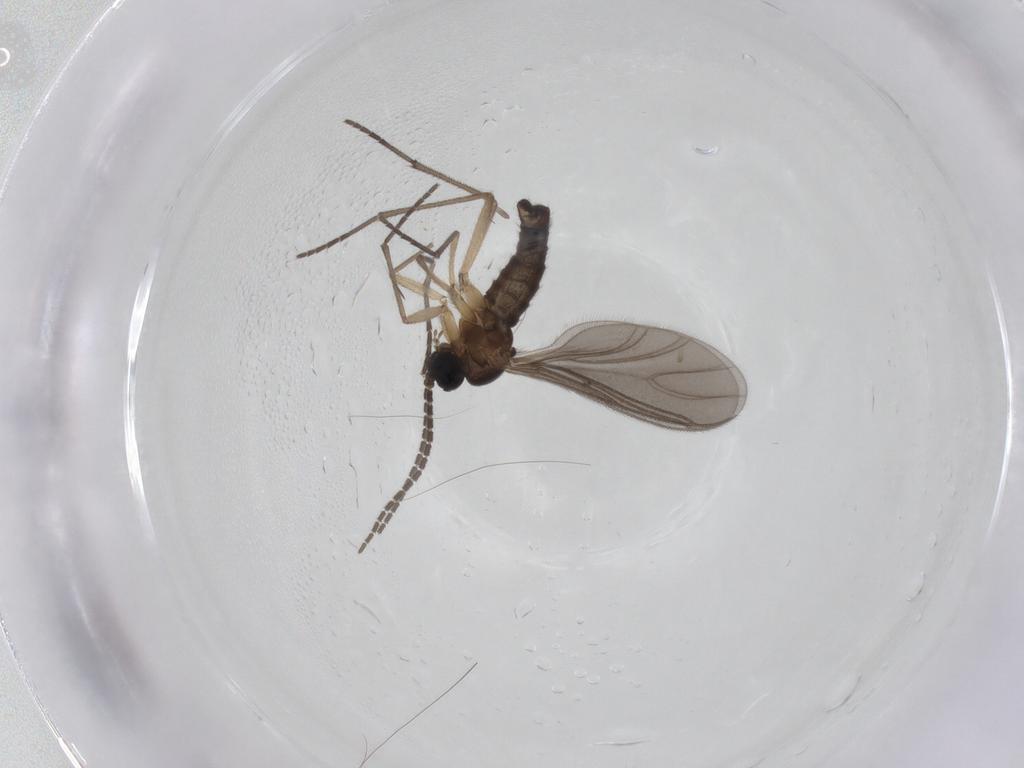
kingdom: Animalia
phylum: Arthropoda
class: Insecta
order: Diptera
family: Sciaridae
